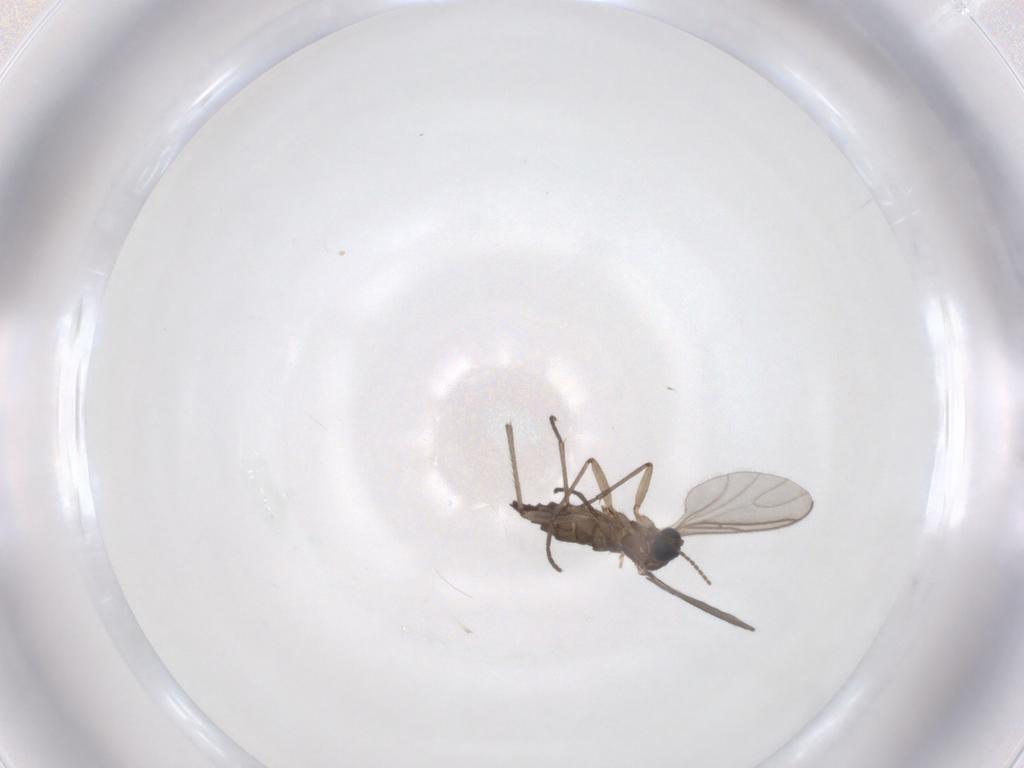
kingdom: Animalia
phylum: Arthropoda
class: Insecta
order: Diptera
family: Sciaridae
